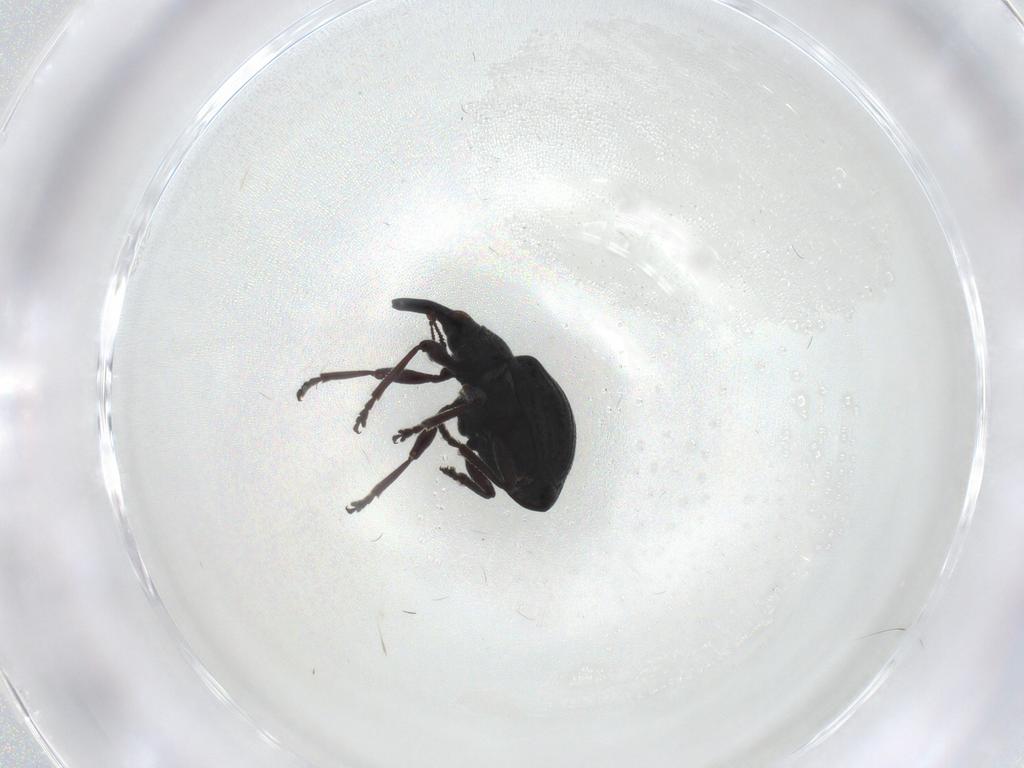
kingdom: Animalia
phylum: Arthropoda
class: Insecta
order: Coleoptera
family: Brentidae
